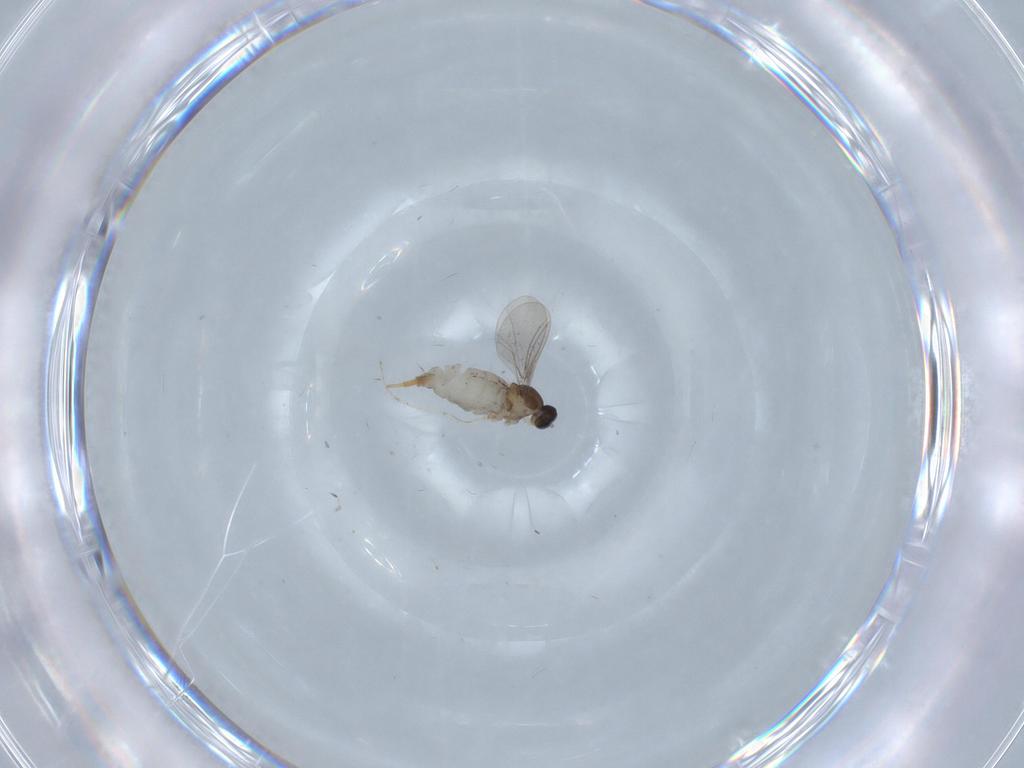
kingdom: Animalia
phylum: Arthropoda
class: Insecta
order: Diptera
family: Cecidomyiidae
